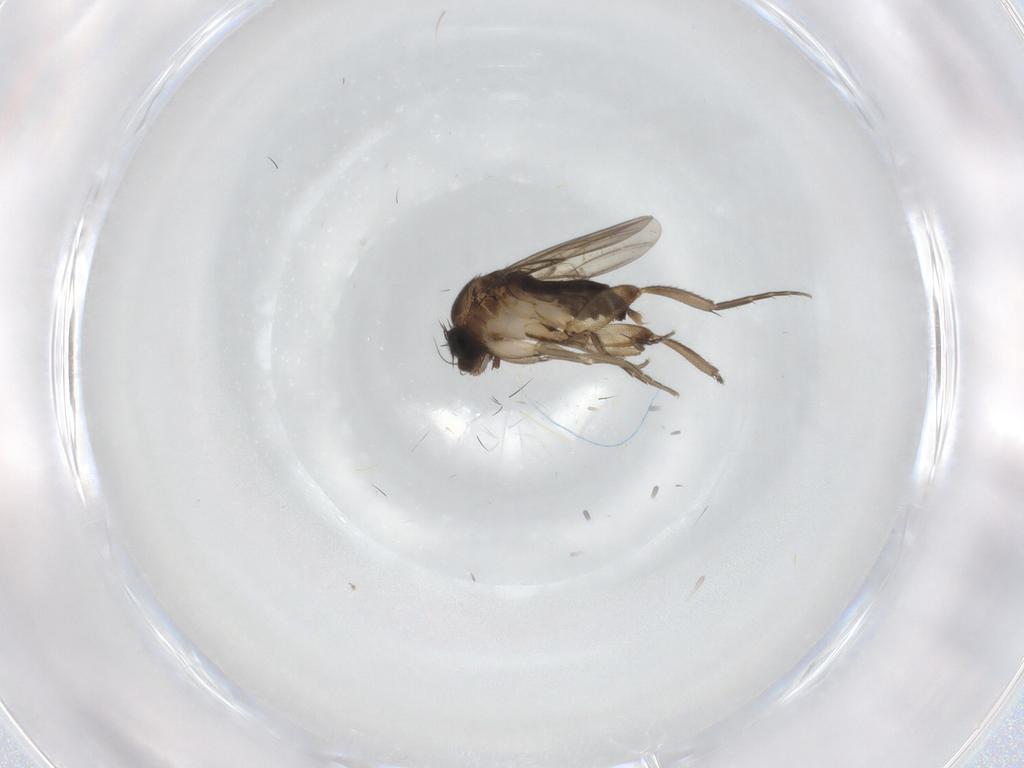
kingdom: Animalia
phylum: Arthropoda
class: Insecta
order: Diptera
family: Phoridae
